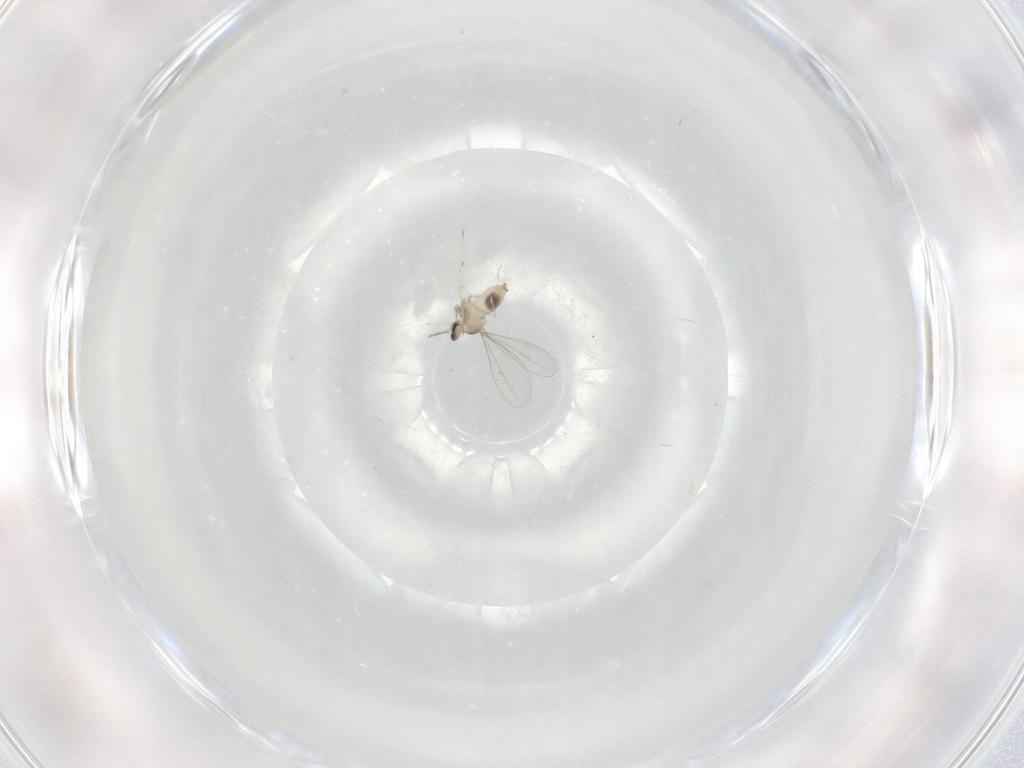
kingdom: Animalia
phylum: Arthropoda
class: Insecta
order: Diptera
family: Cecidomyiidae
